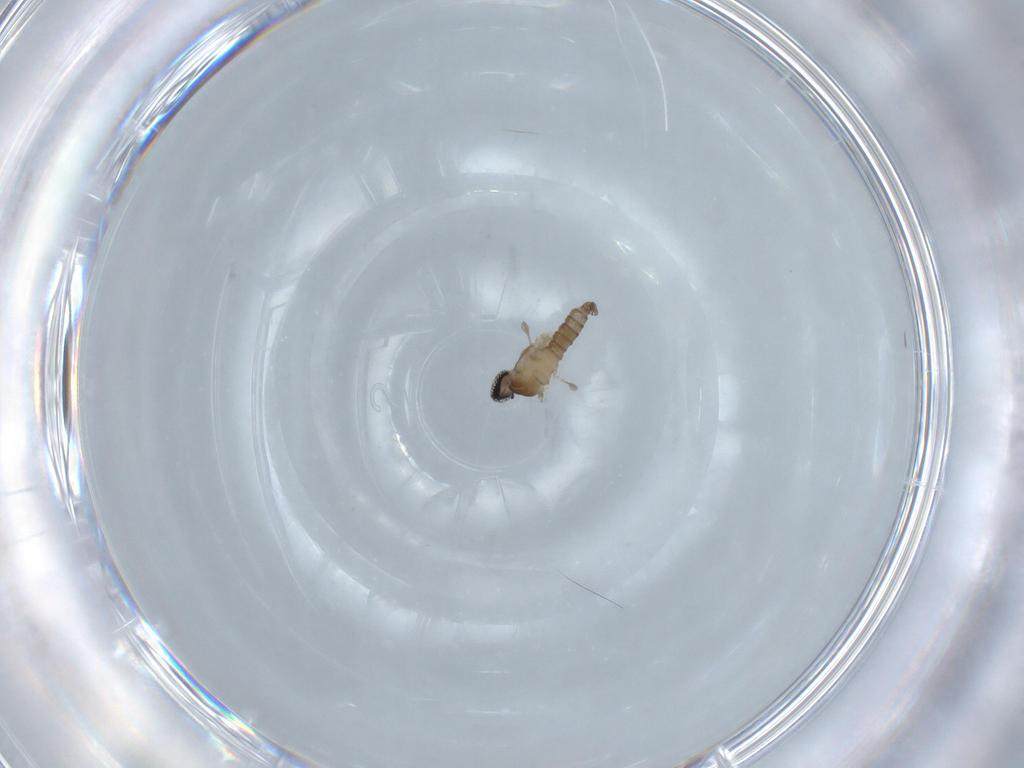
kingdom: Animalia
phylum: Arthropoda
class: Insecta
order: Diptera
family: Cecidomyiidae
